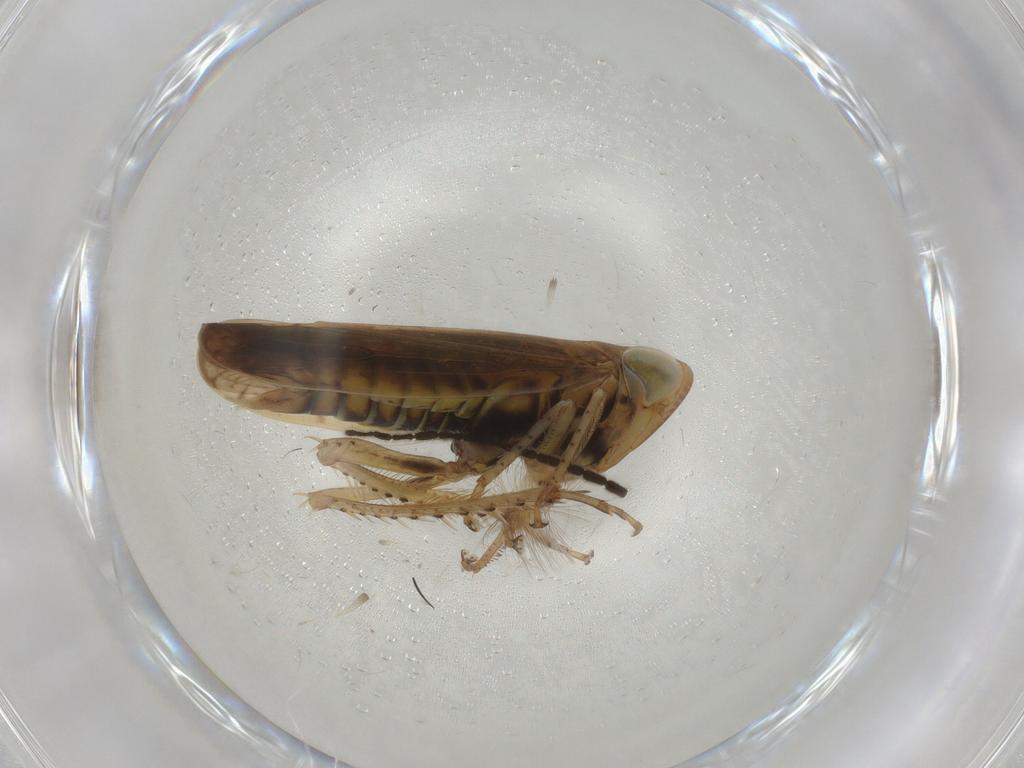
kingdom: Animalia
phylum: Arthropoda
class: Insecta
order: Hemiptera
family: Cicadellidae
